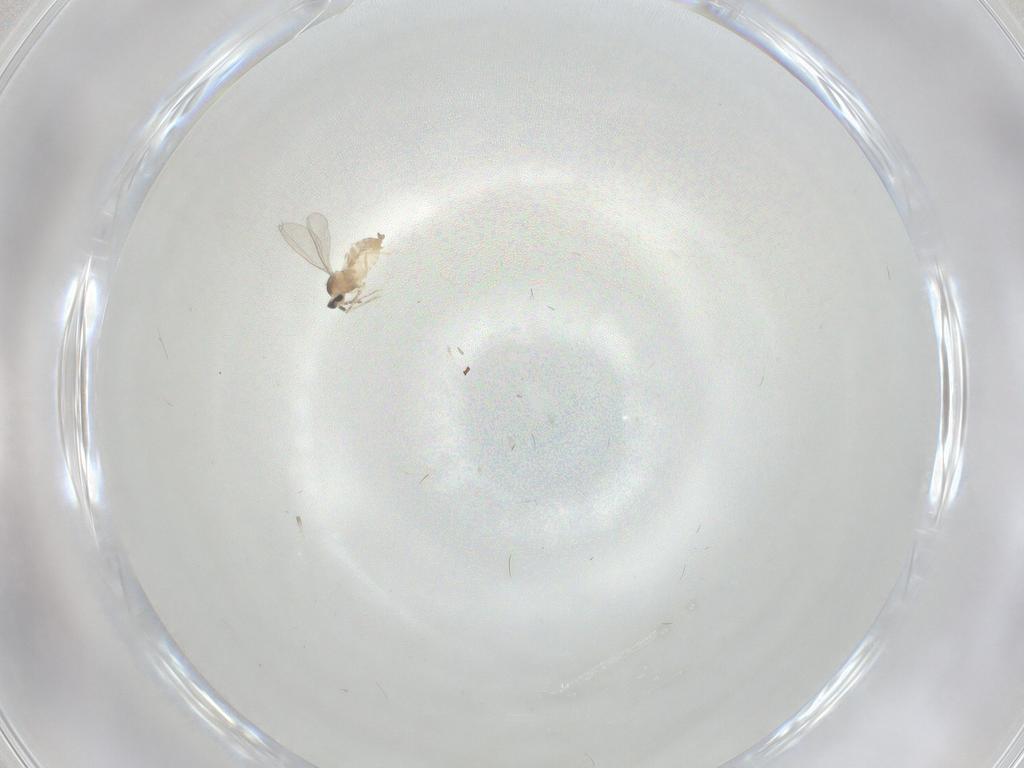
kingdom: Animalia
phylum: Arthropoda
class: Insecta
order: Diptera
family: Cecidomyiidae
